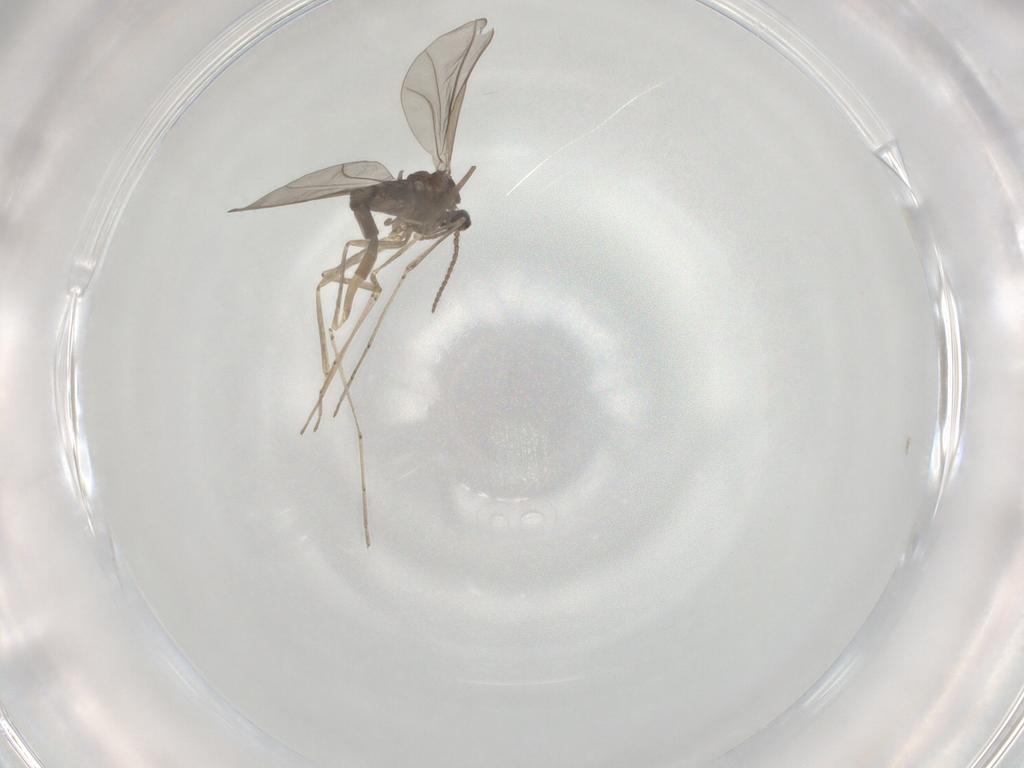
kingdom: Animalia
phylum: Arthropoda
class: Insecta
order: Diptera
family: Cecidomyiidae
